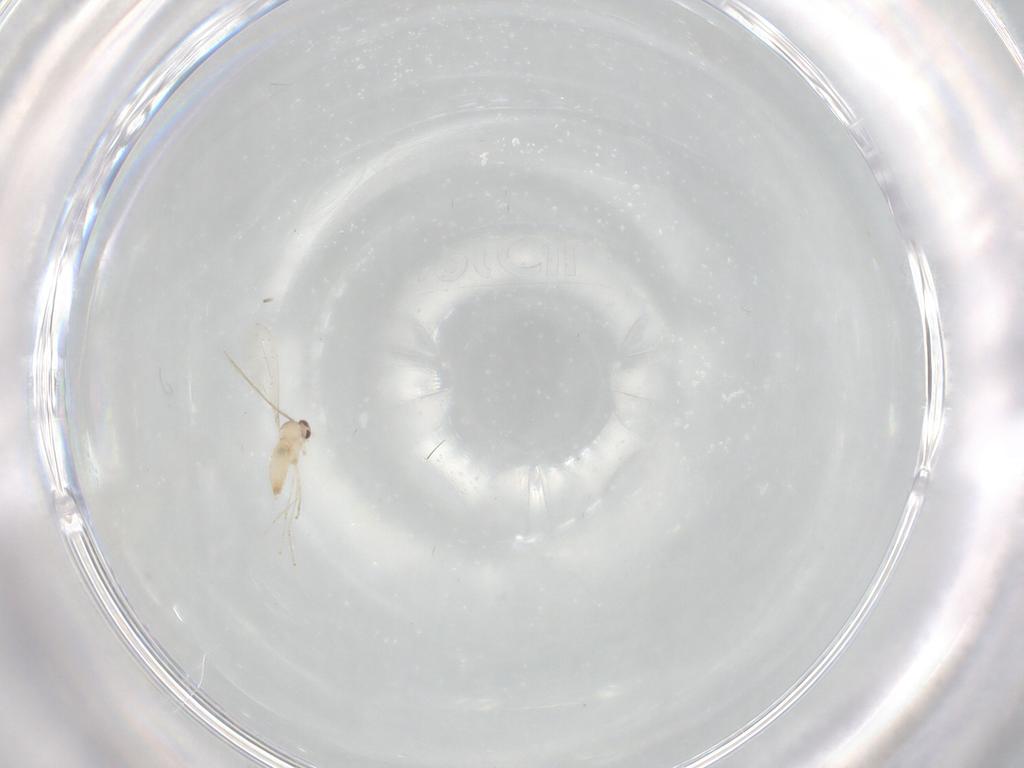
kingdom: Animalia
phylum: Arthropoda
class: Insecta
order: Diptera
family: Cecidomyiidae
